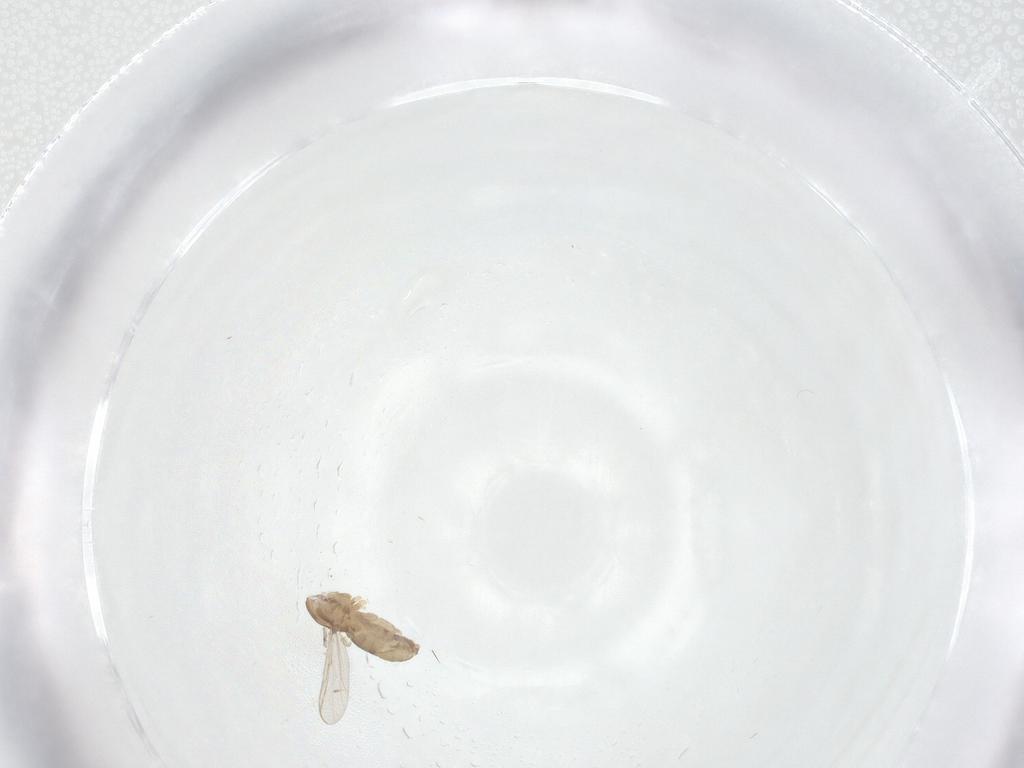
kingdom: Animalia
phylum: Arthropoda
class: Insecta
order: Diptera
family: Chironomidae
